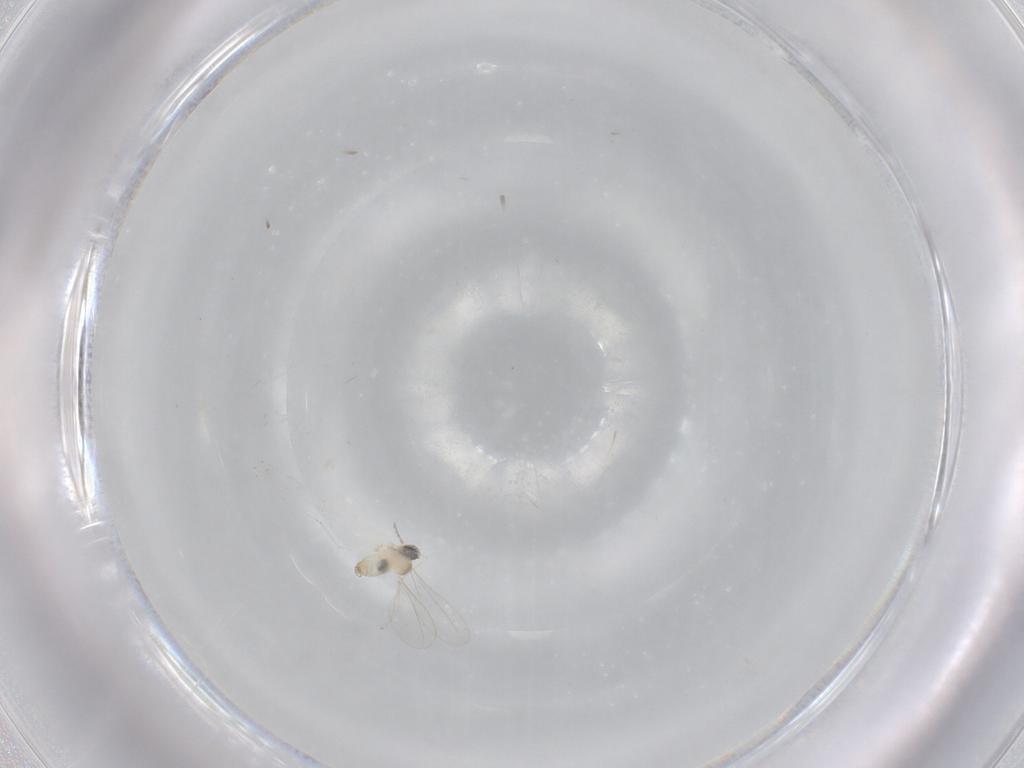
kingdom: Animalia
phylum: Arthropoda
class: Insecta
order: Diptera
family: Cecidomyiidae
